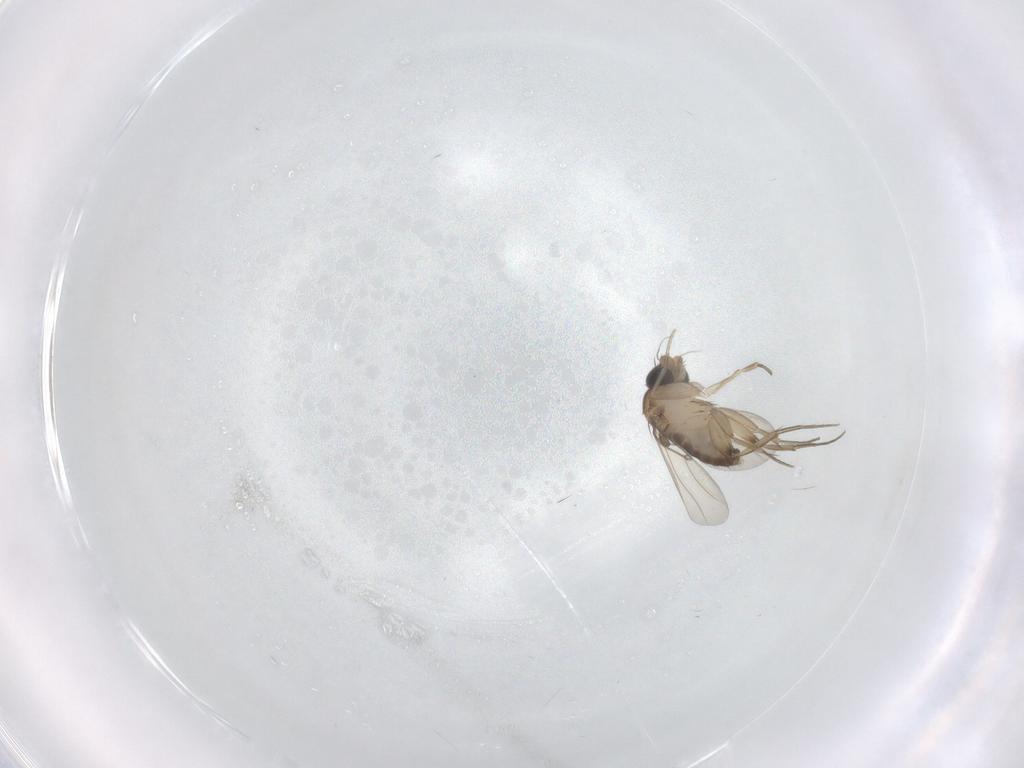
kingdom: Animalia
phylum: Arthropoda
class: Insecta
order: Diptera
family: Phoridae
